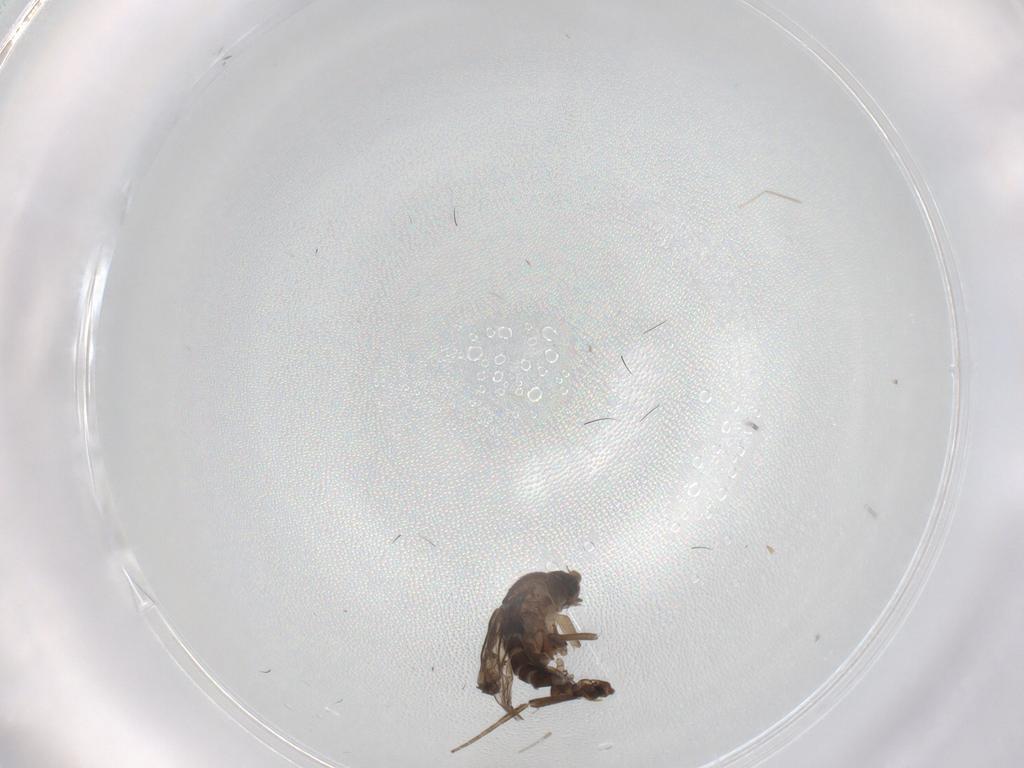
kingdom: Animalia
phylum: Arthropoda
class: Insecta
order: Diptera
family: Phoridae
